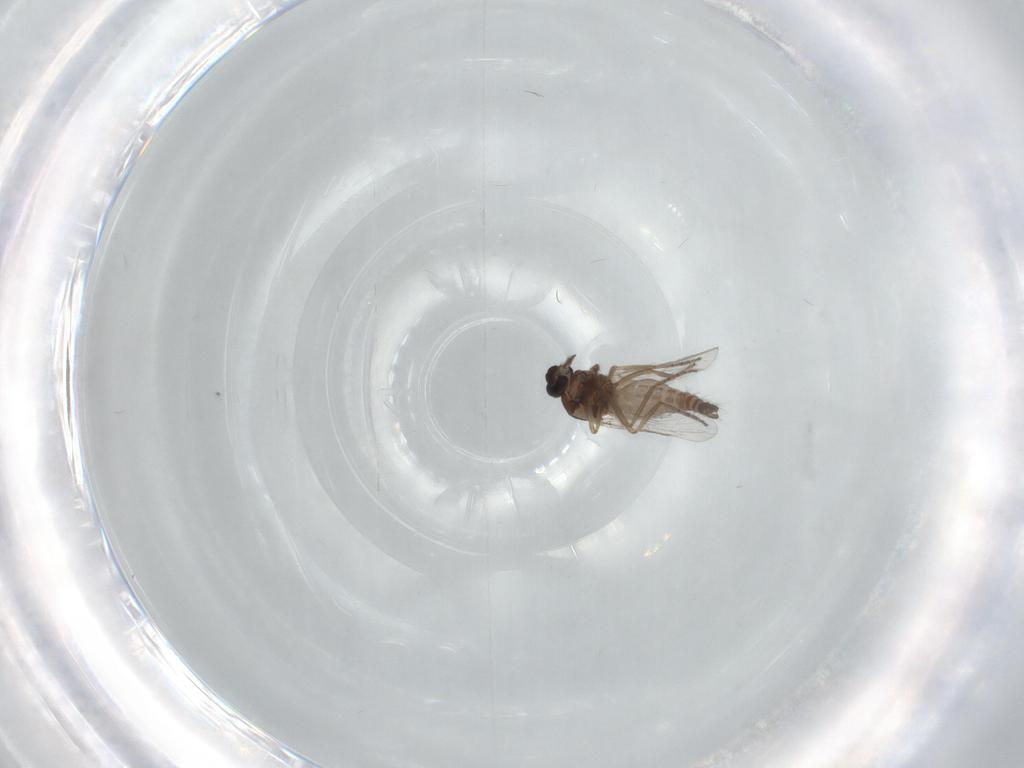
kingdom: Animalia
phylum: Arthropoda
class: Insecta
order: Diptera
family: Ceratopogonidae
